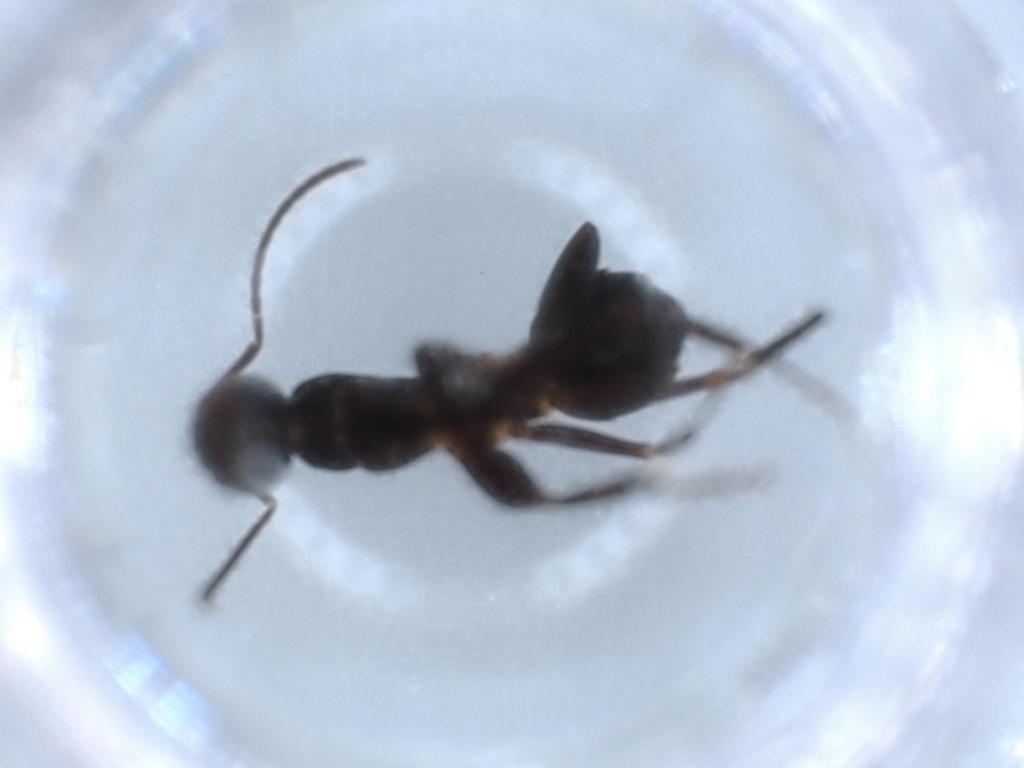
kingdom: Animalia
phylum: Arthropoda
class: Insecta
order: Hymenoptera
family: Formicidae
